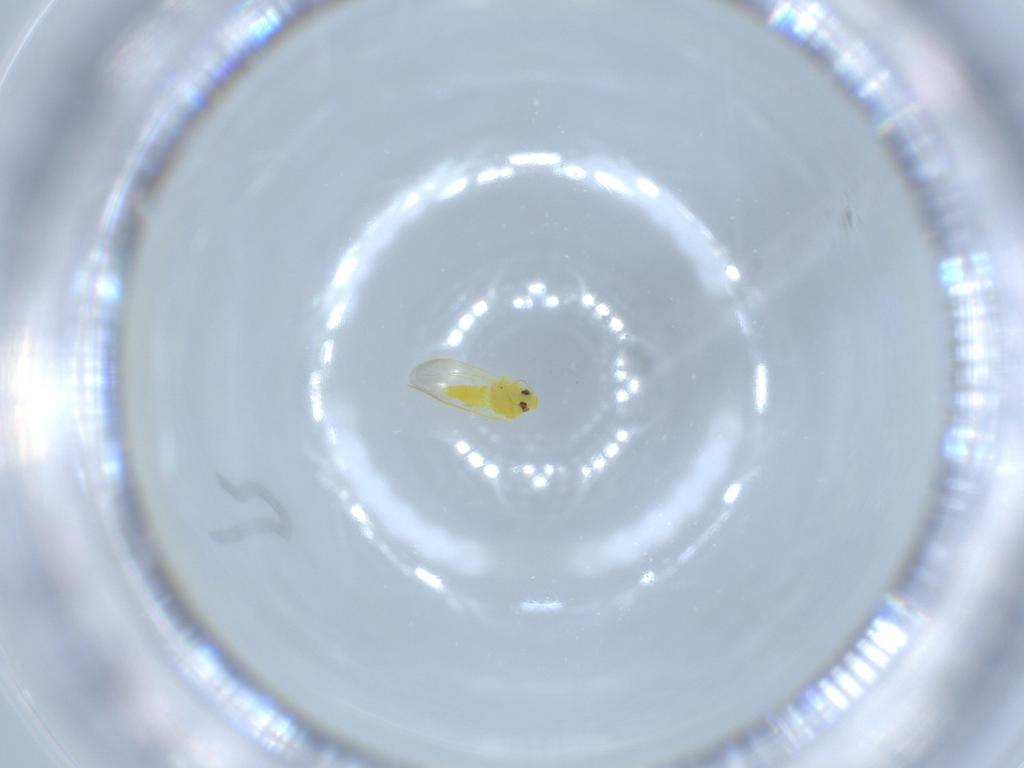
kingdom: Animalia
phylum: Arthropoda
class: Insecta
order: Hemiptera
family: Aleyrodidae
